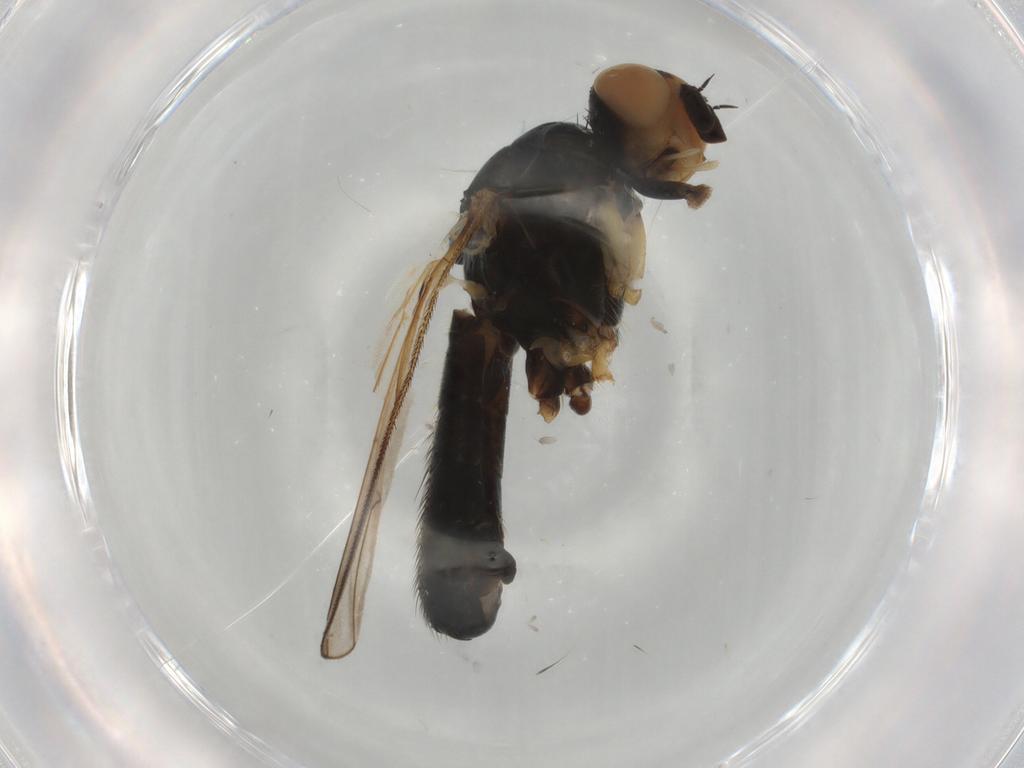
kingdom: Animalia
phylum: Arthropoda
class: Insecta
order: Diptera
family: Scathophagidae
